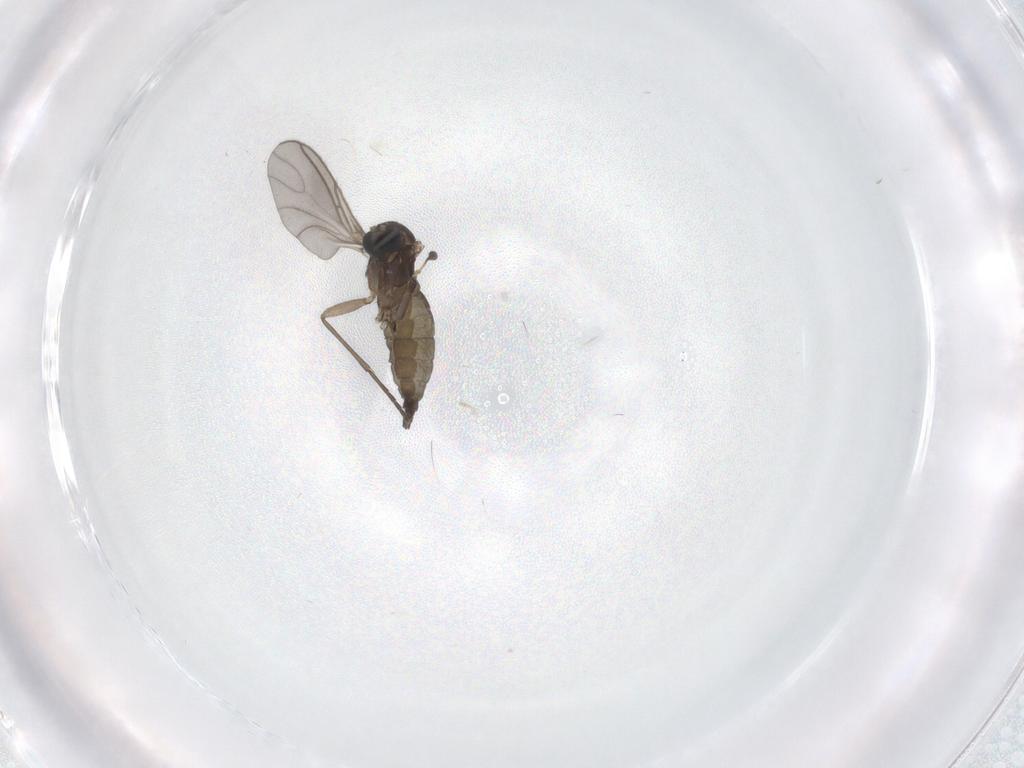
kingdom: Animalia
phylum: Arthropoda
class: Insecta
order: Diptera
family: Sciaridae
